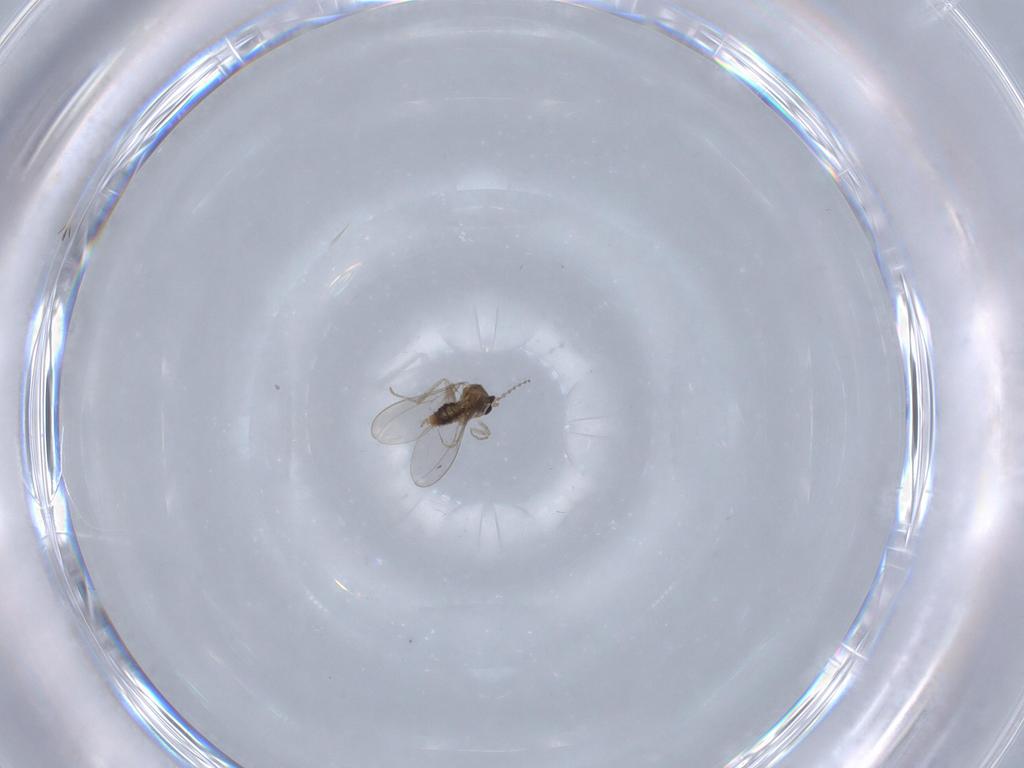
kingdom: Animalia
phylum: Arthropoda
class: Insecta
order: Diptera
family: Cecidomyiidae
